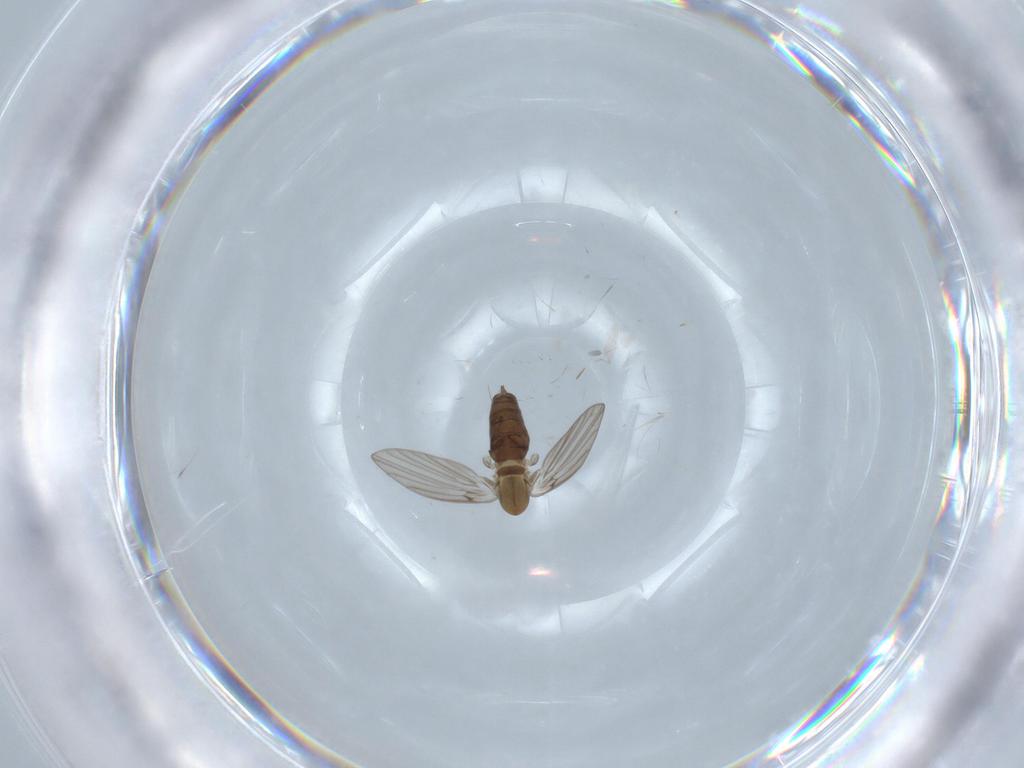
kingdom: Animalia
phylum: Arthropoda
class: Insecta
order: Diptera
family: Psychodidae
